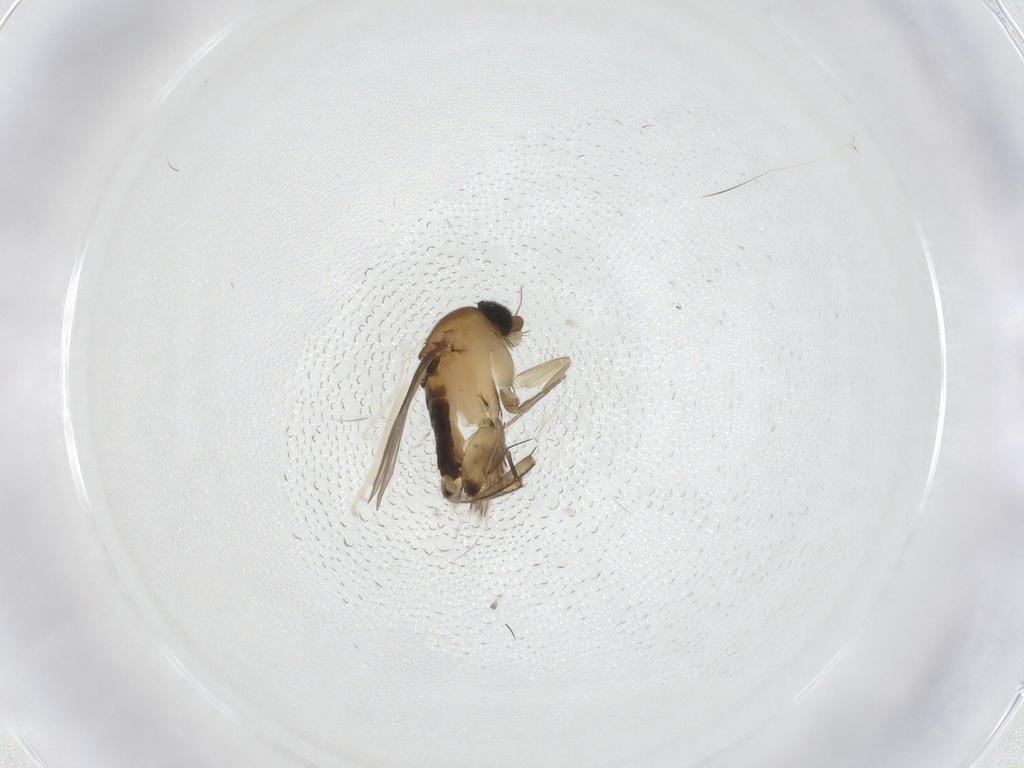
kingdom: Animalia
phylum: Arthropoda
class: Insecta
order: Diptera
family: Phoridae
